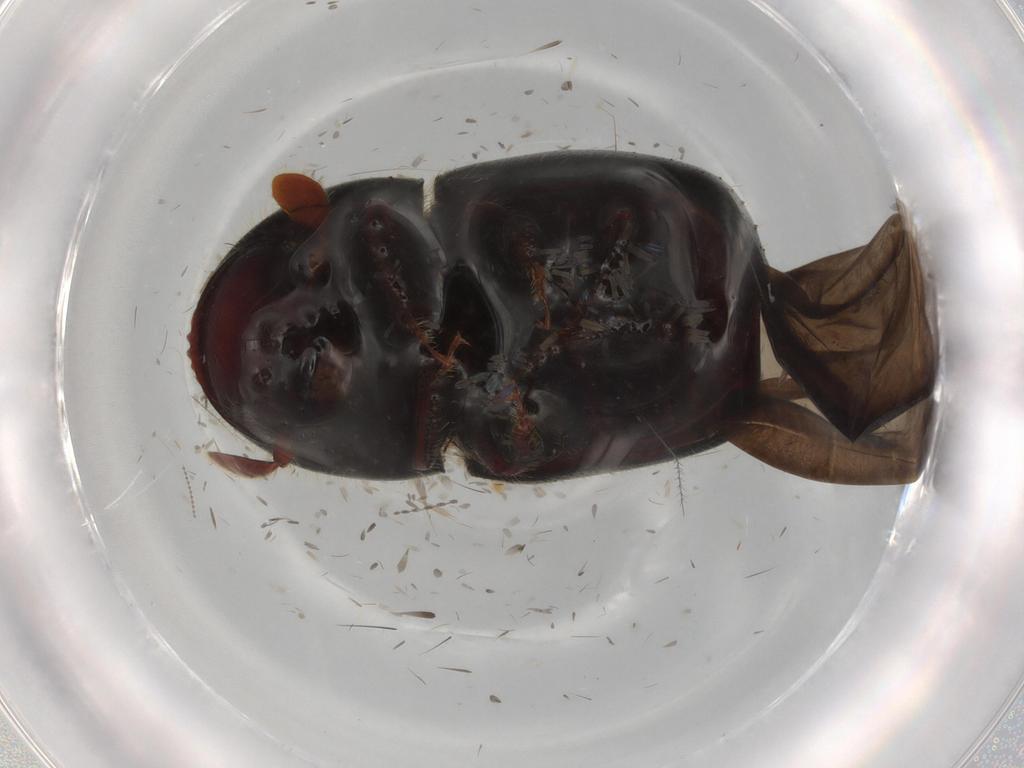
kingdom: Animalia
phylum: Arthropoda
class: Insecta
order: Coleoptera
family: Endomychidae
